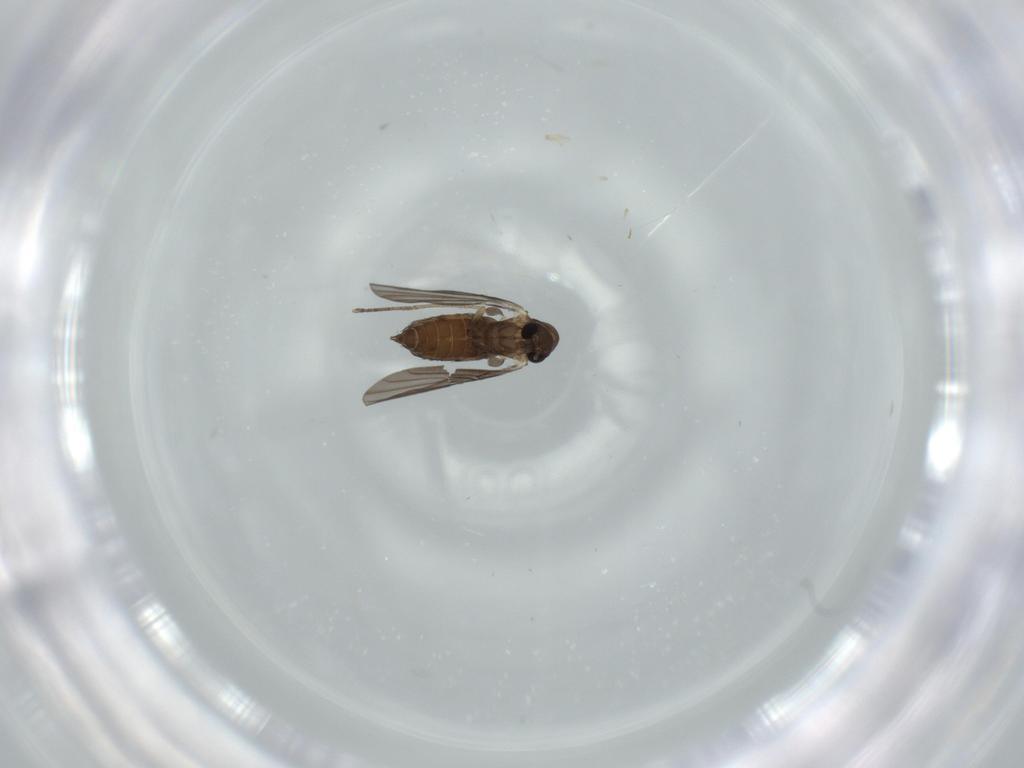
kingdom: Animalia
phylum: Arthropoda
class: Insecta
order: Diptera
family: Psychodidae
